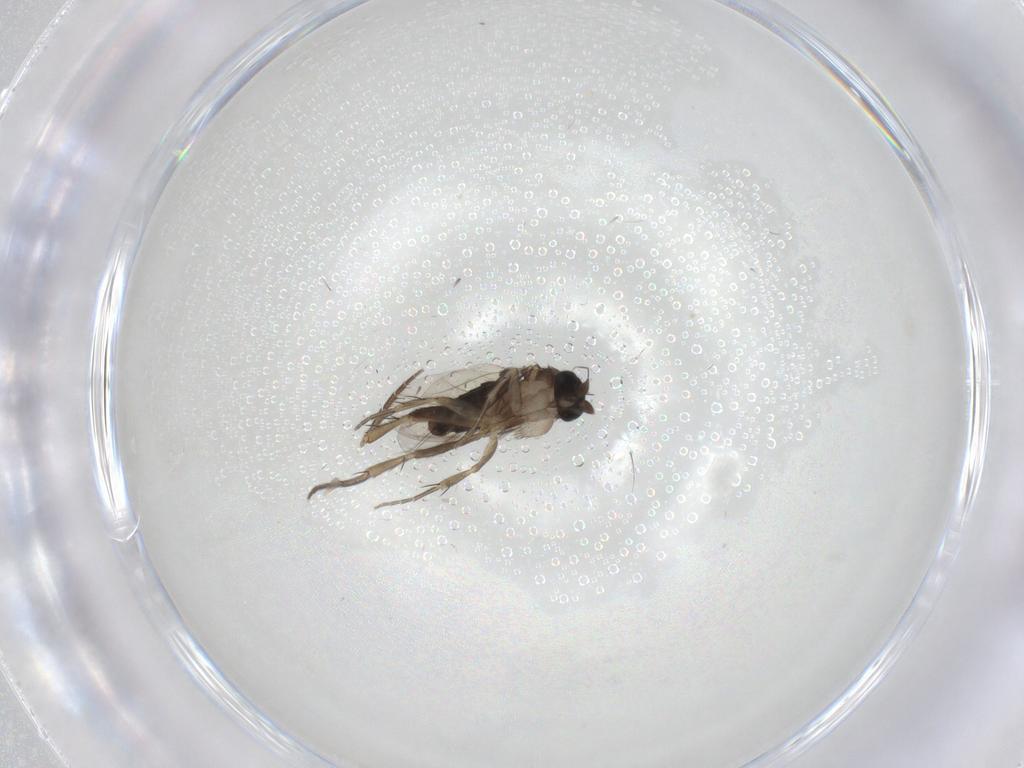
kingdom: Animalia
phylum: Arthropoda
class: Insecta
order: Diptera
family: Phoridae
